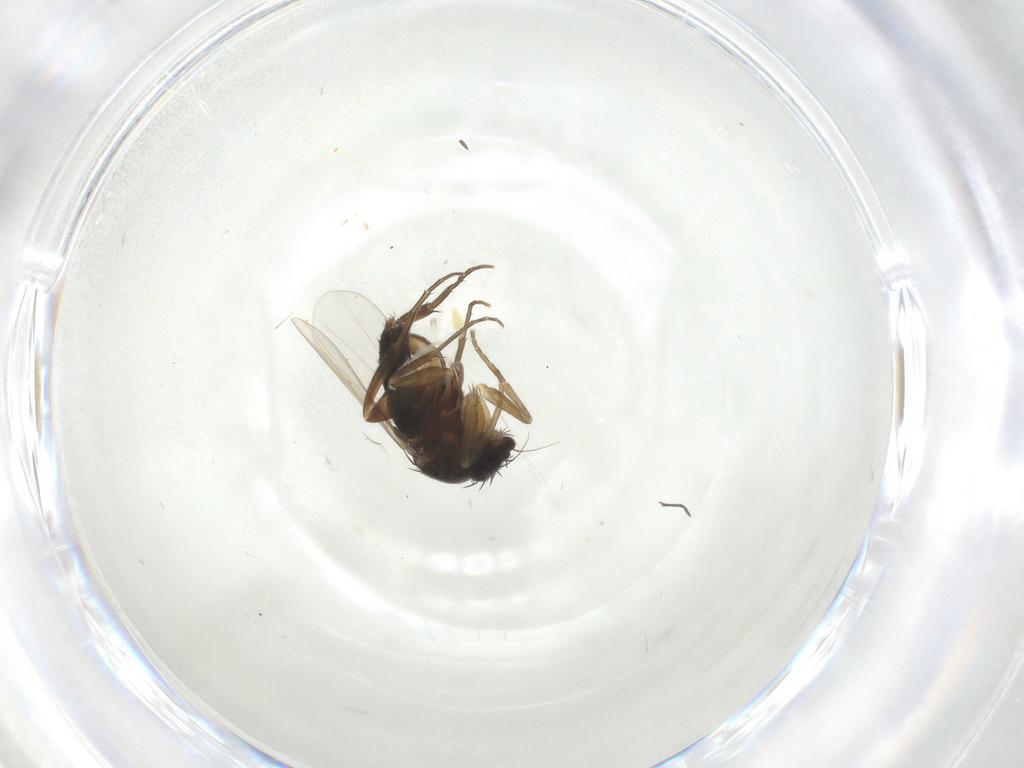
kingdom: Animalia
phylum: Arthropoda
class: Insecta
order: Diptera
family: Phoridae
